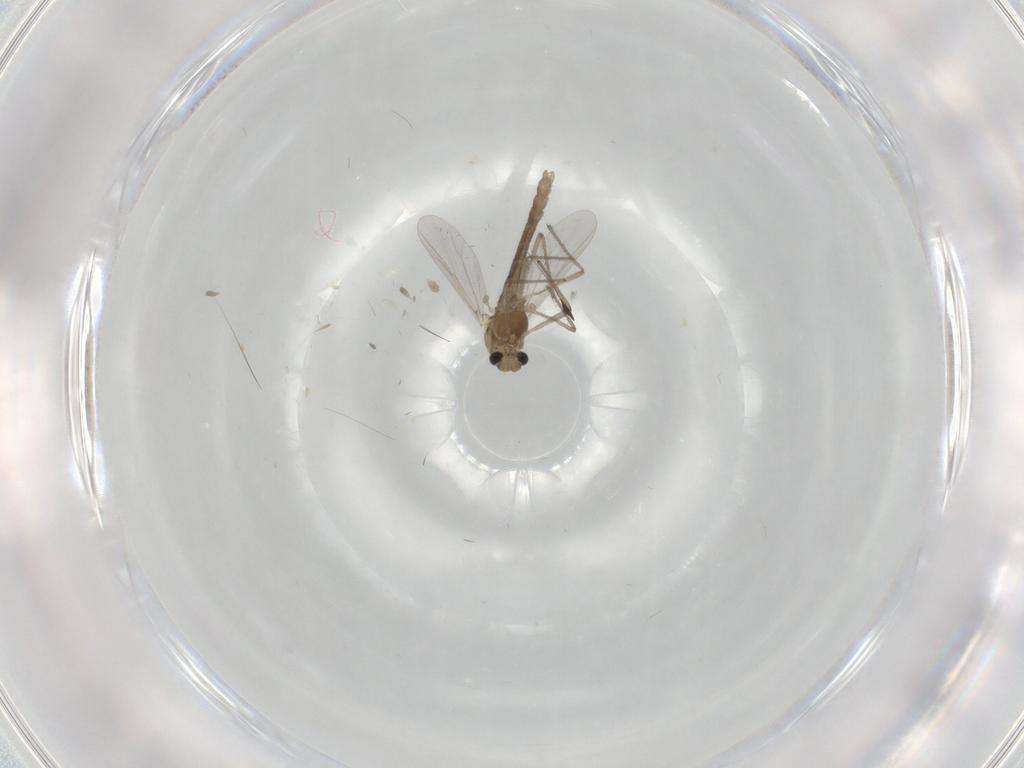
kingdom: Animalia
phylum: Arthropoda
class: Insecta
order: Diptera
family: Chironomidae
